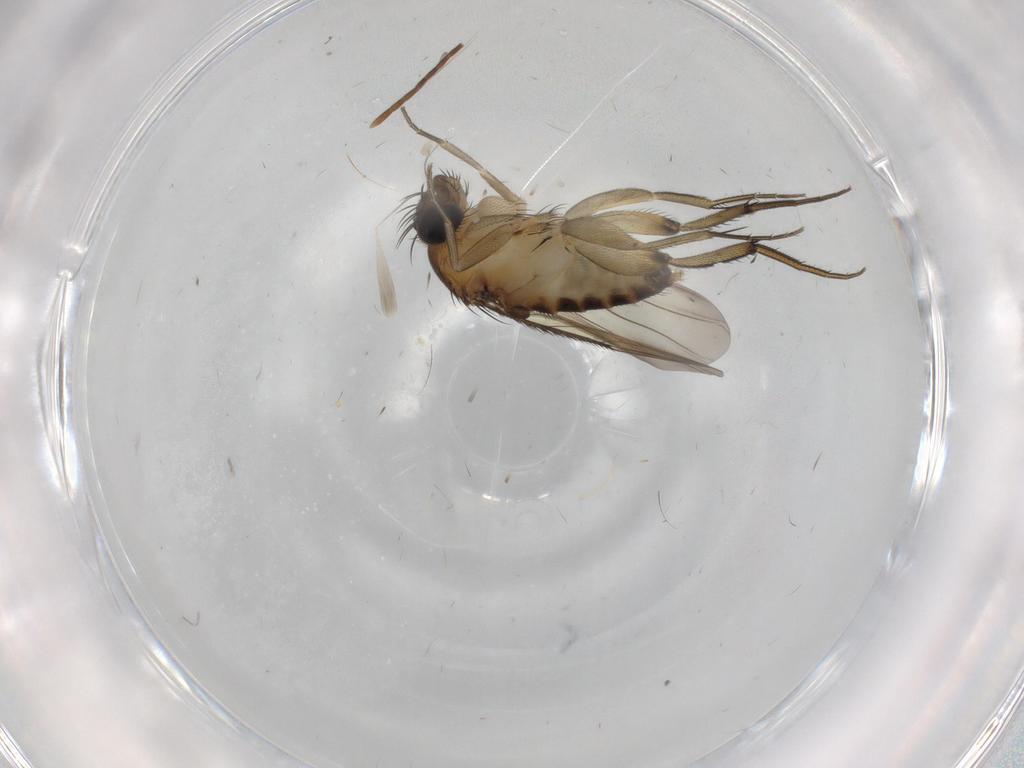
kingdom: Animalia
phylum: Arthropoda
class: Insecta
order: Diptera
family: Phoridae
